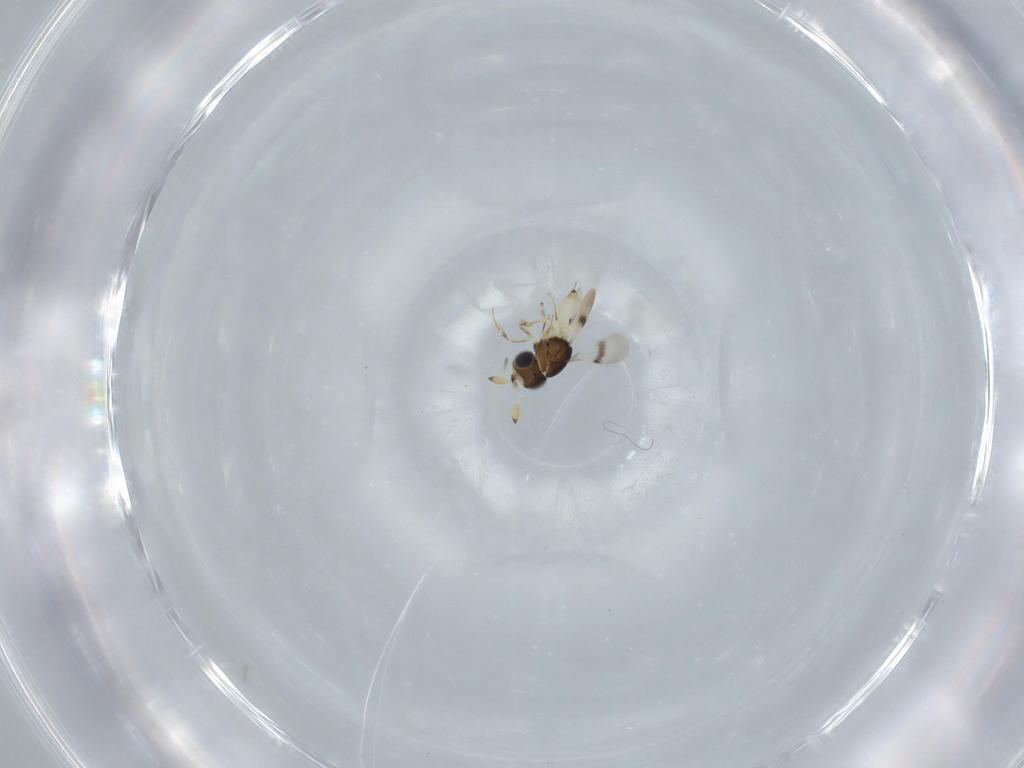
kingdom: Animalia
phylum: Arthropoda
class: Insecta
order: Hymenoptera
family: Scelionidae
